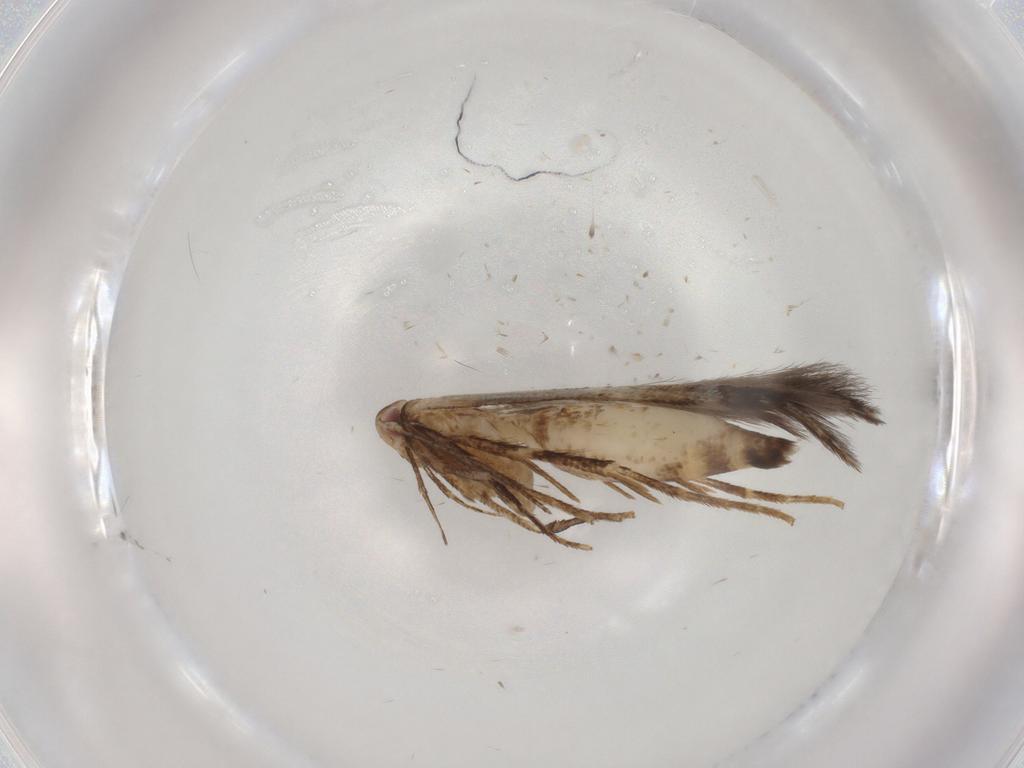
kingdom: Animalia
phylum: Arthropoda
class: Insecta
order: Lepidoptera
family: Cosmopterigidae
